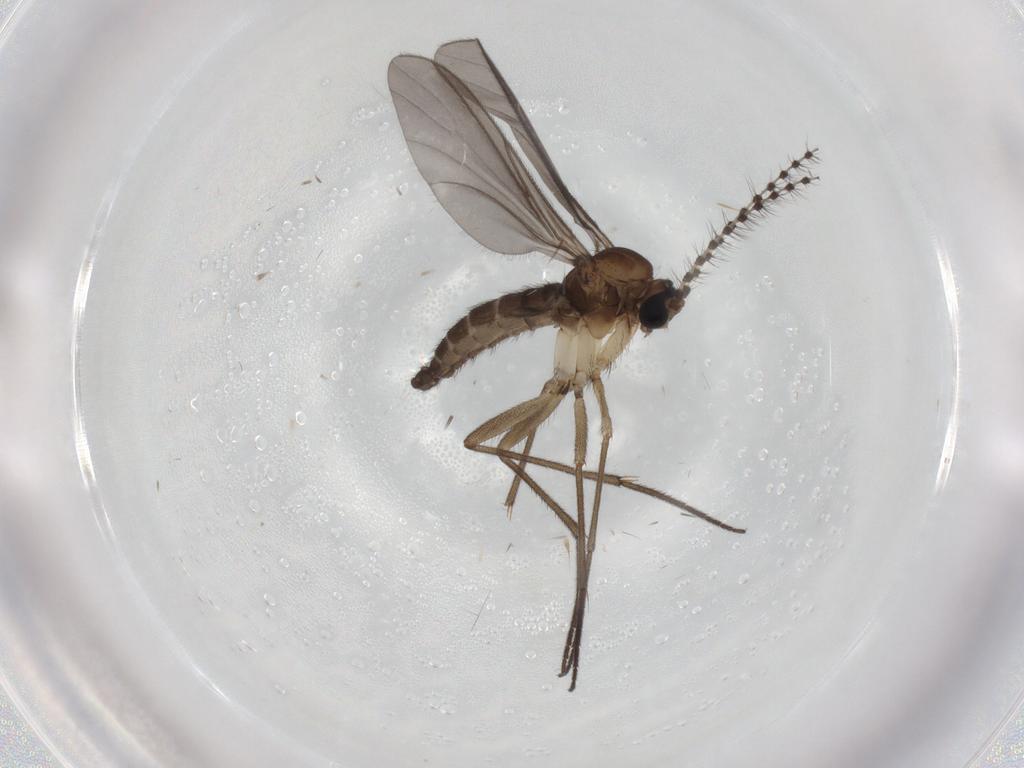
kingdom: Animalia
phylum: Arthropoda
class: Insecta
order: Diptera
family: Sciaridae
